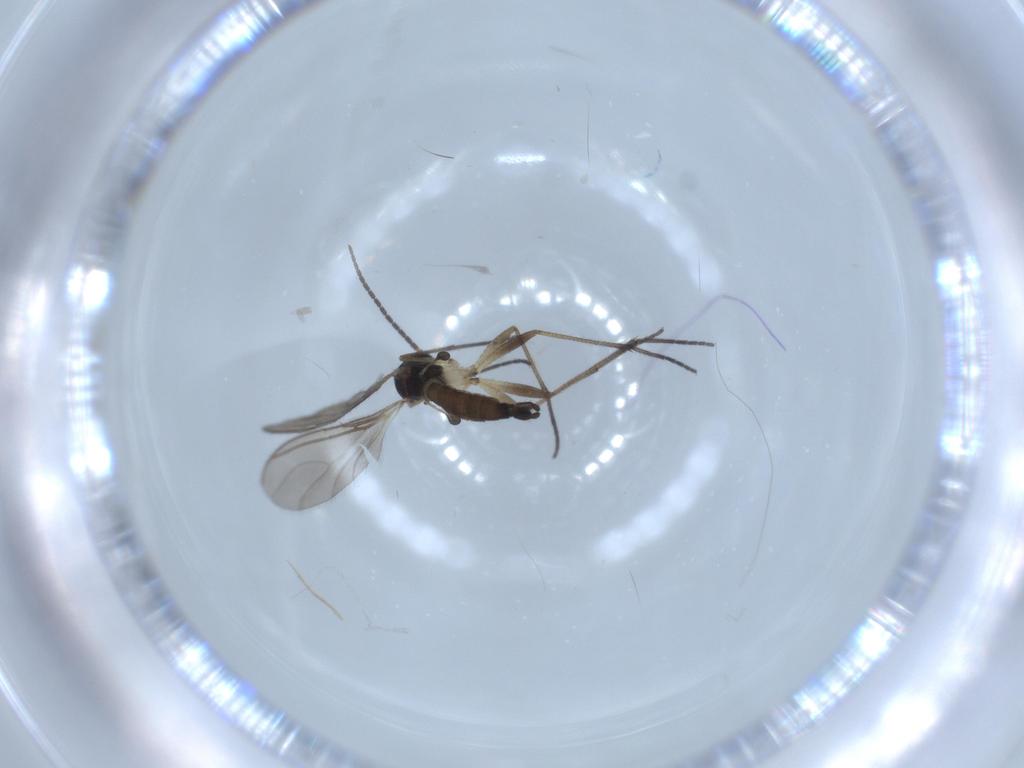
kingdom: Animalia
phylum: Arthropoda
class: Insecta
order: Diptera
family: Sciaridae
